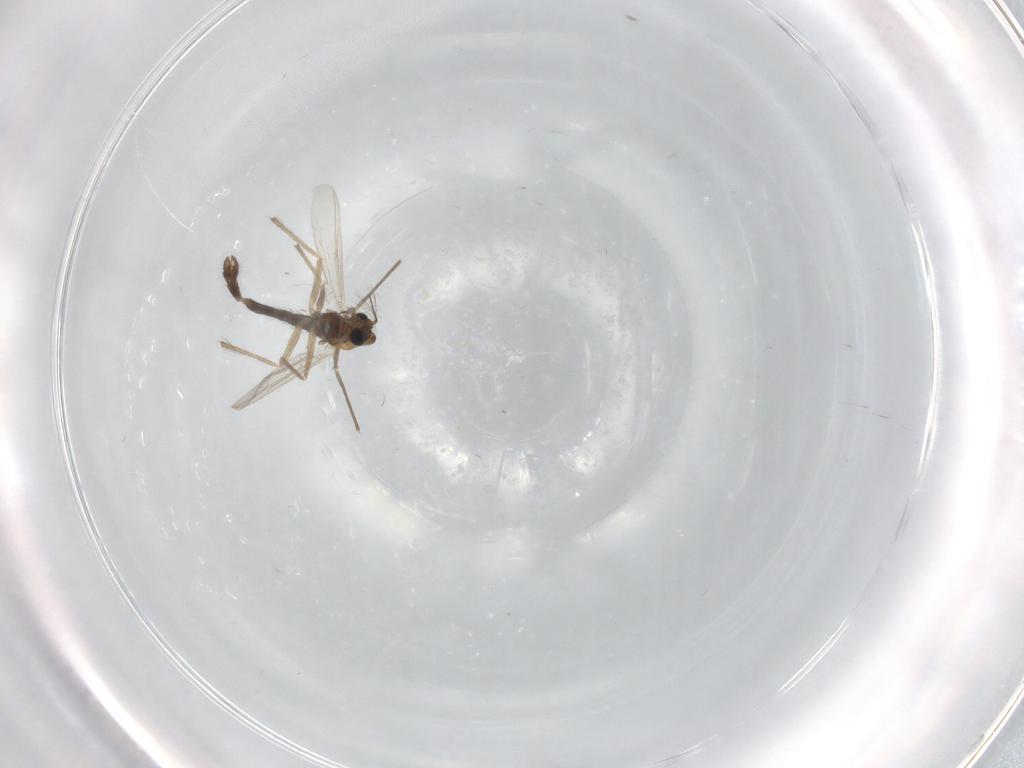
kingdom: Animalia
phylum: Arthropoda
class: Insecta
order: Diptera
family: Chironomidae
